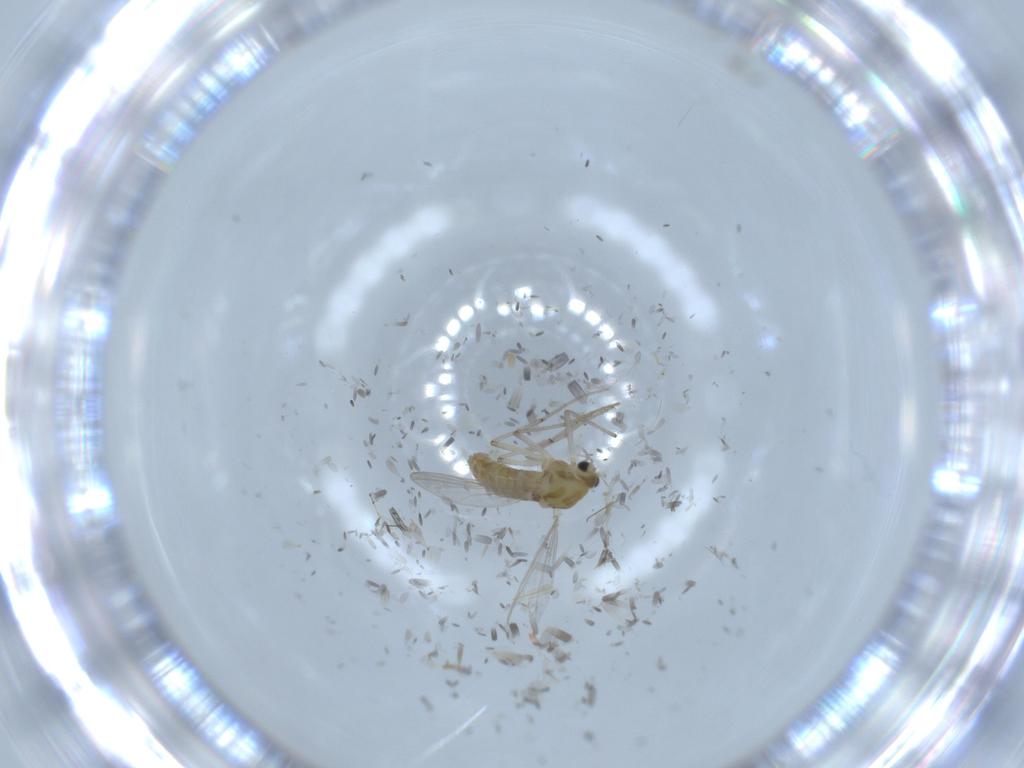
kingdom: Animalia
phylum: Arthropoda
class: Insecta
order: Diptera
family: Chironomidae
